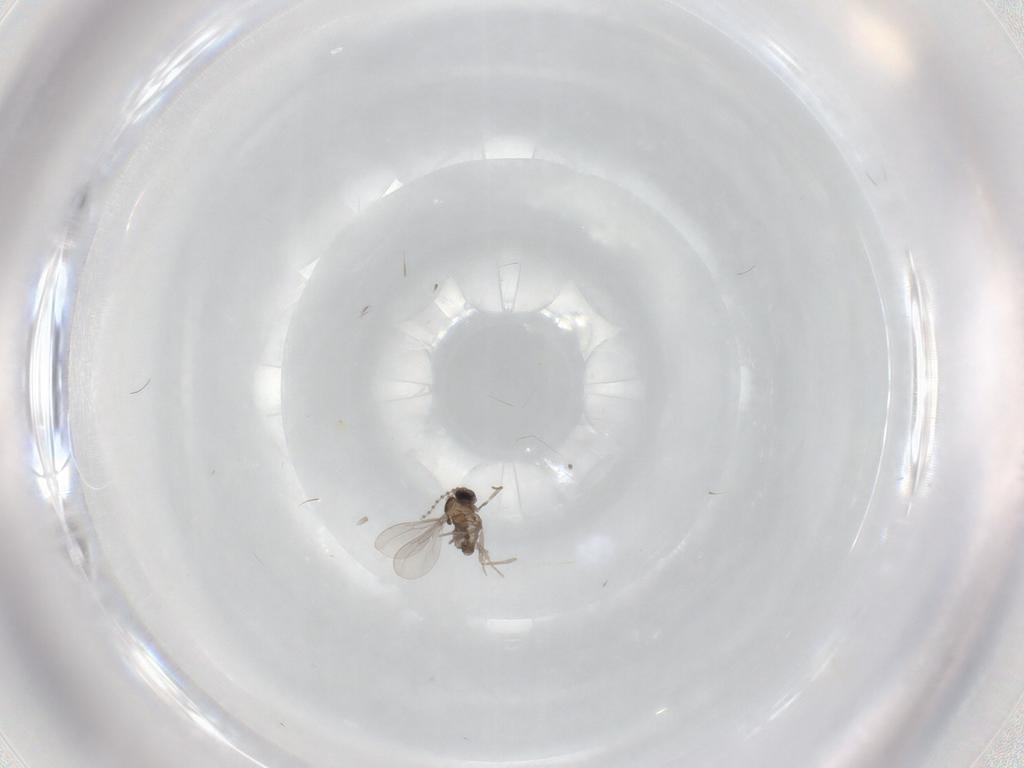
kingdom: Animalia
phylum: Arthropoda
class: Insecta
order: Diptera
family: Cecidomyiidae
